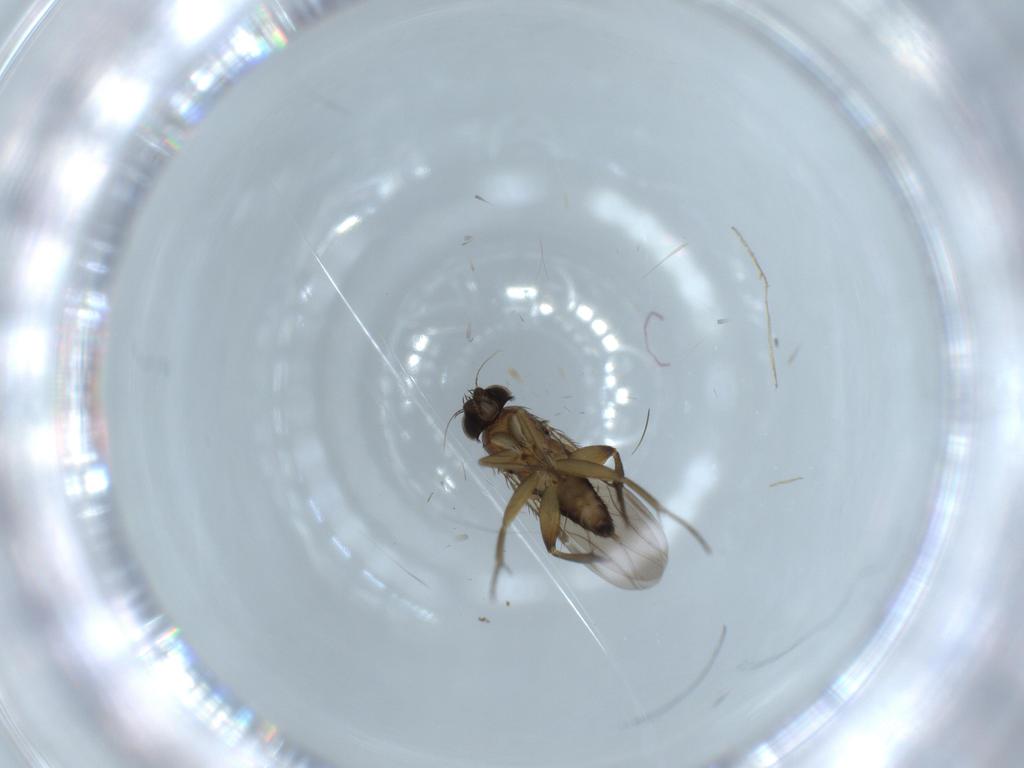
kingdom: Animalia
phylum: Arthropoda
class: Insecta
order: Diptera
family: Phoridae
